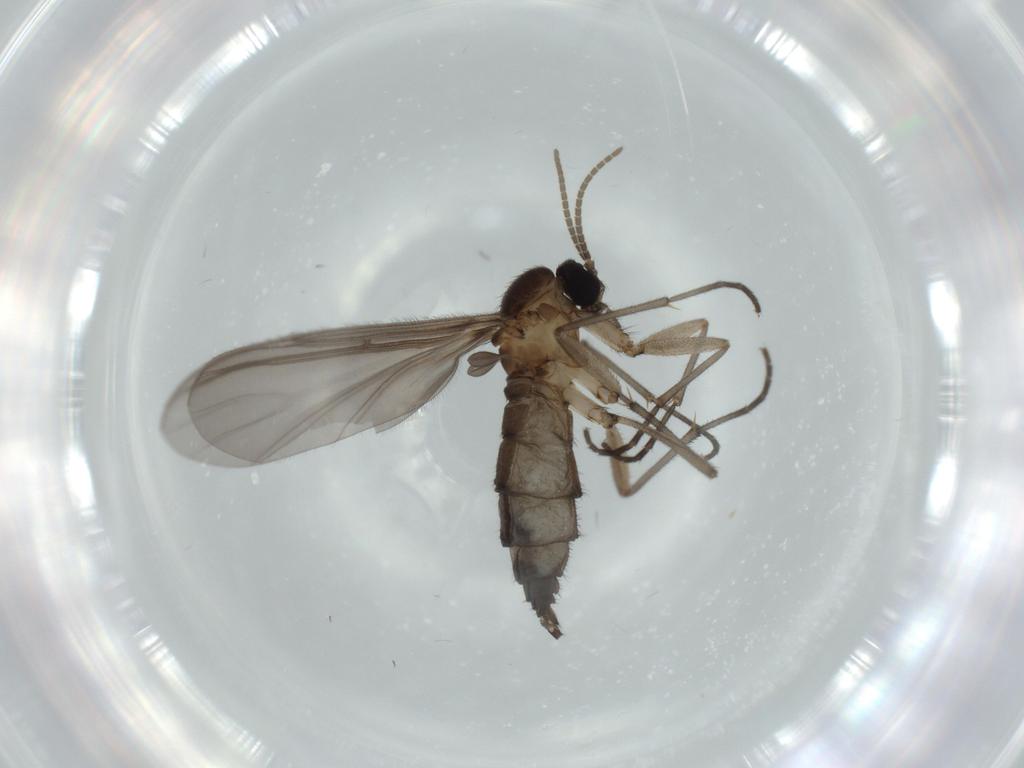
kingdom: Animalia
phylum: Arthropoda
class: Insecta
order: Diptera
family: Sciaridae
